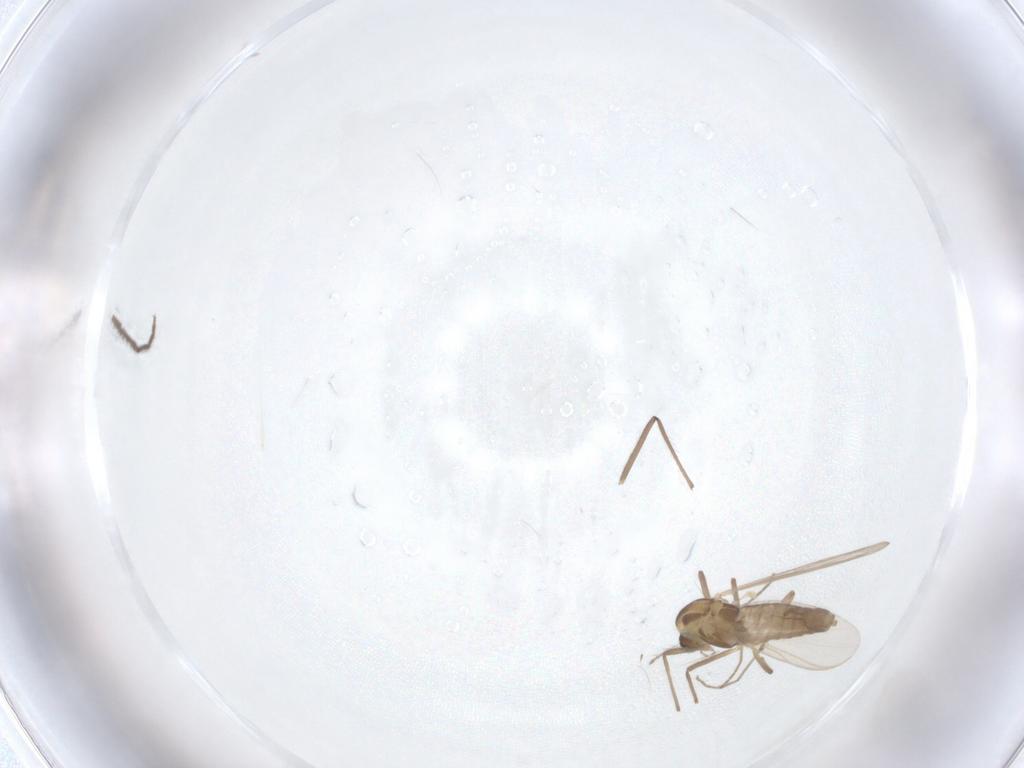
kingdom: Animalia
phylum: Arthropoda
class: Insecta
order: Diptera
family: Chironomidae
